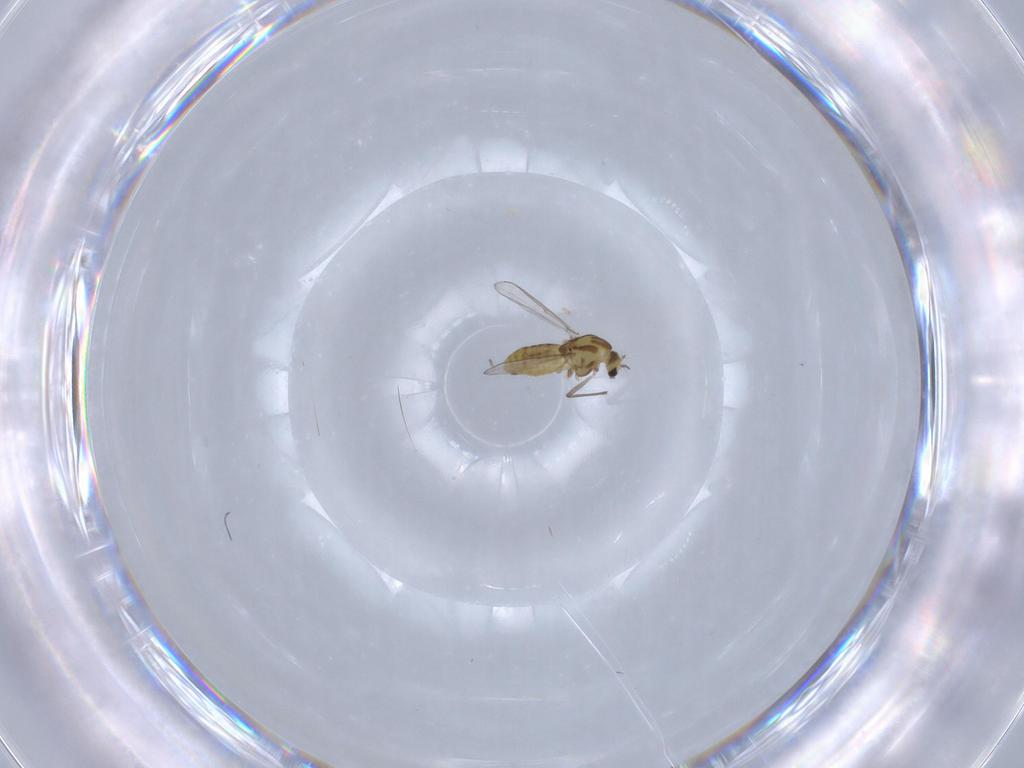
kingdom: Animalia
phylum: Arthropoda
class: Insecta
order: Diptera
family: Chironomidae
